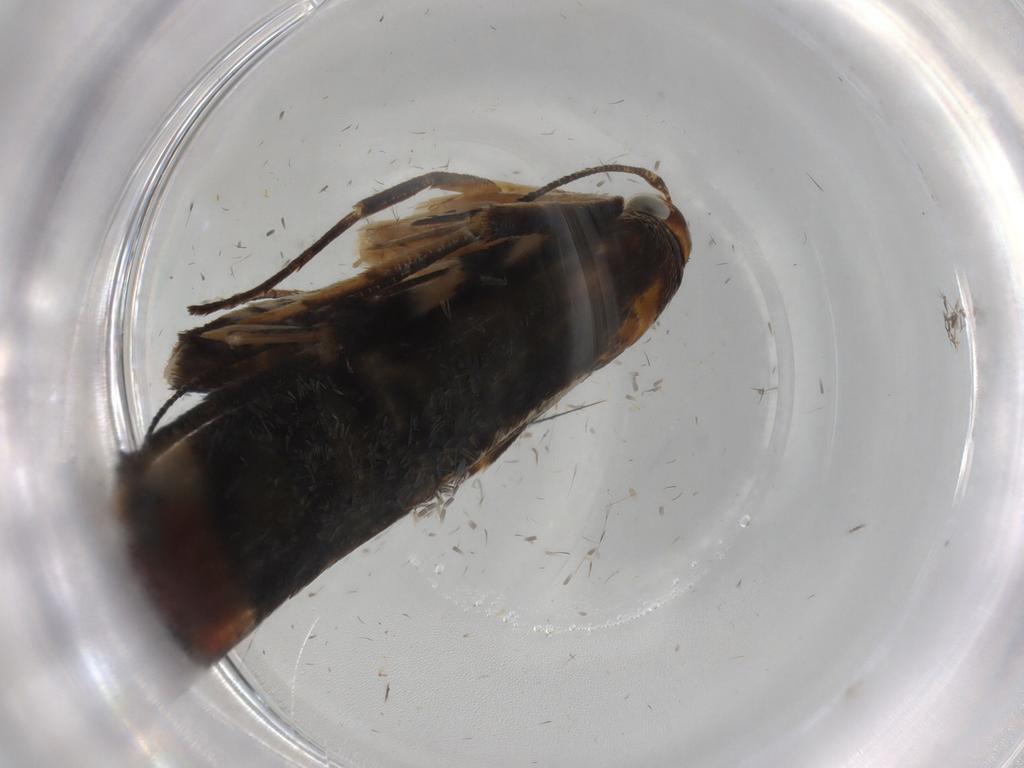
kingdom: Animalia
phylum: Arthropoda
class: Insecta
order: Lepidoptera
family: Gelechiidae
